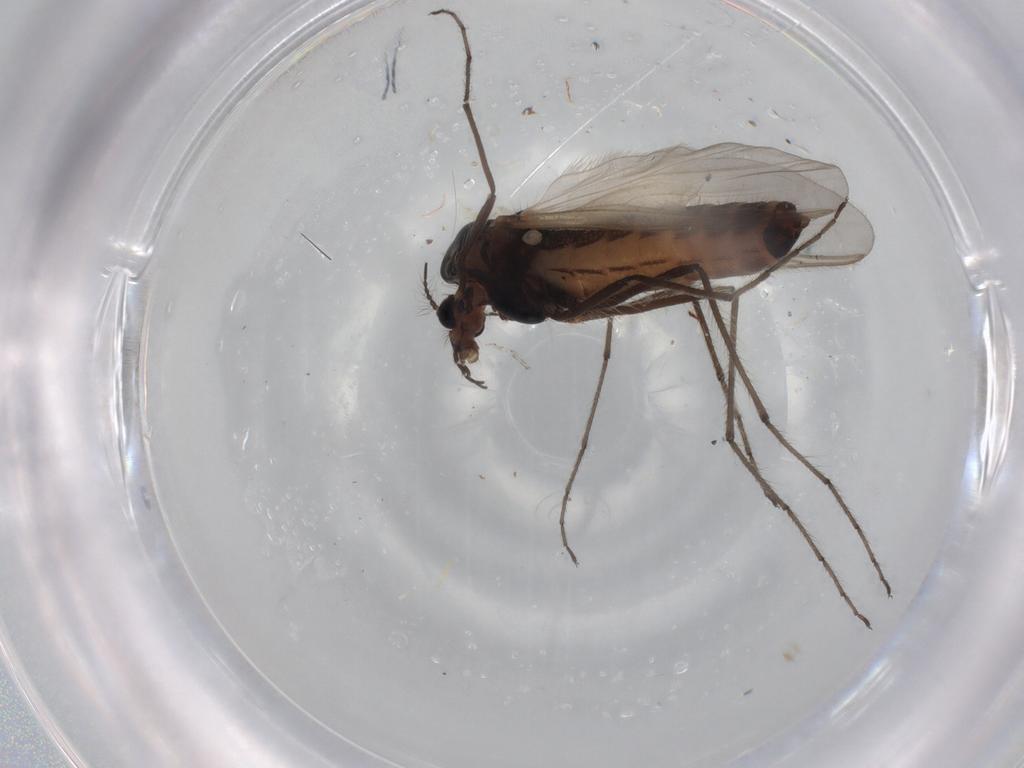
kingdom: Animalia
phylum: Arthropoda
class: Insecta
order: Diptera
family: Chironomidae
